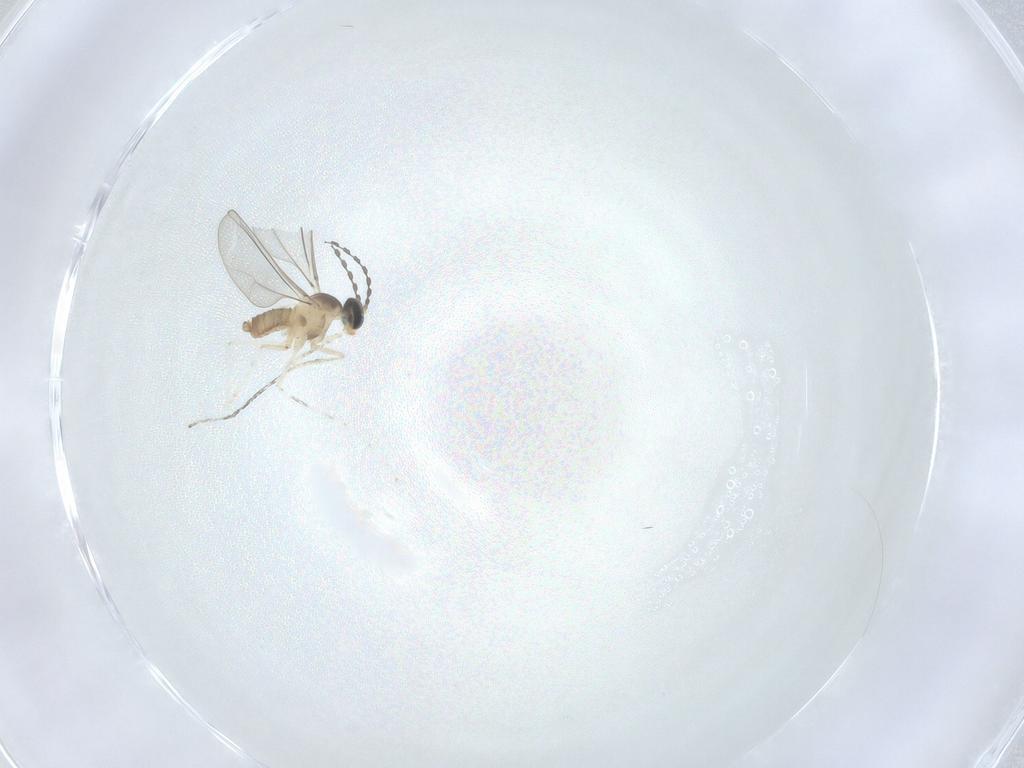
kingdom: Animalia
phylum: Arthropoda
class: Insecta
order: Diptera
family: Cecidomyiidae
